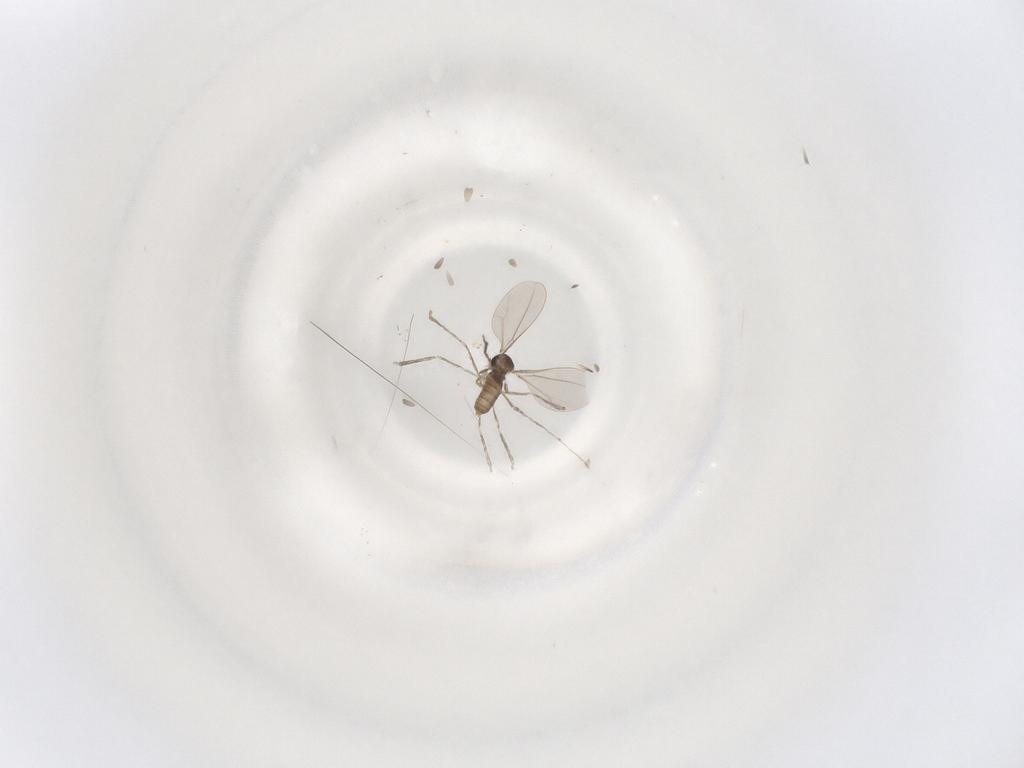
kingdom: Animalia
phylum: Arthropoda
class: Insecta
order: Diptera
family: Cecidomyiidae
